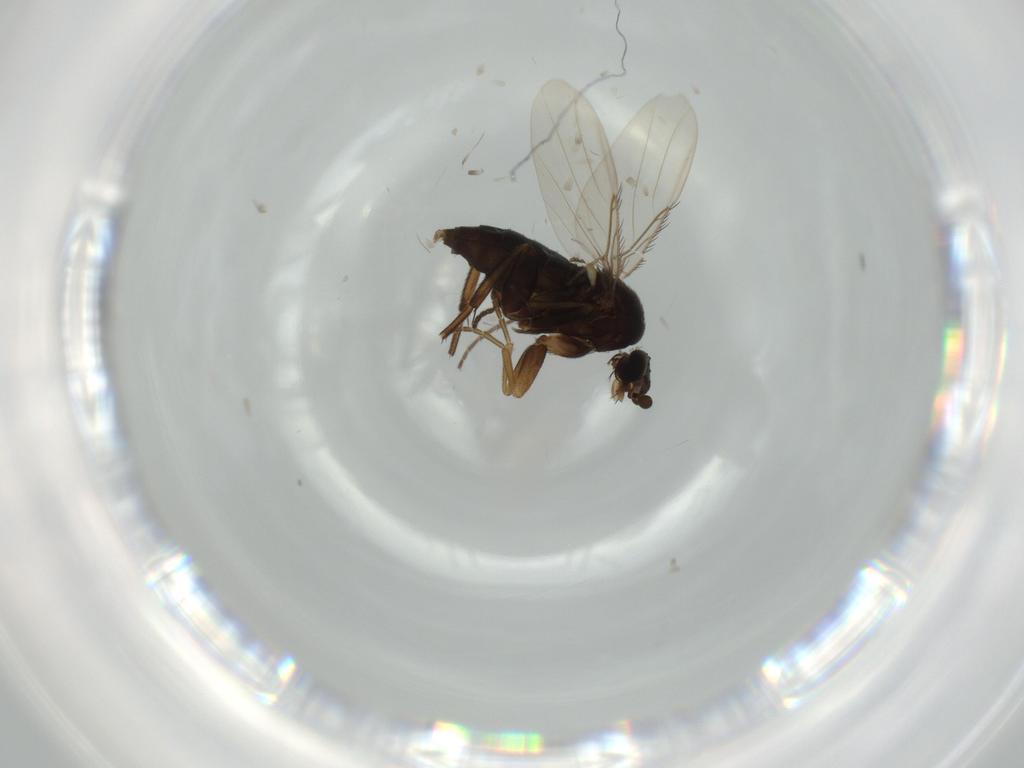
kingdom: Animalia
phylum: Arthropoda
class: Insecta
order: Diptera
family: Phoridae
